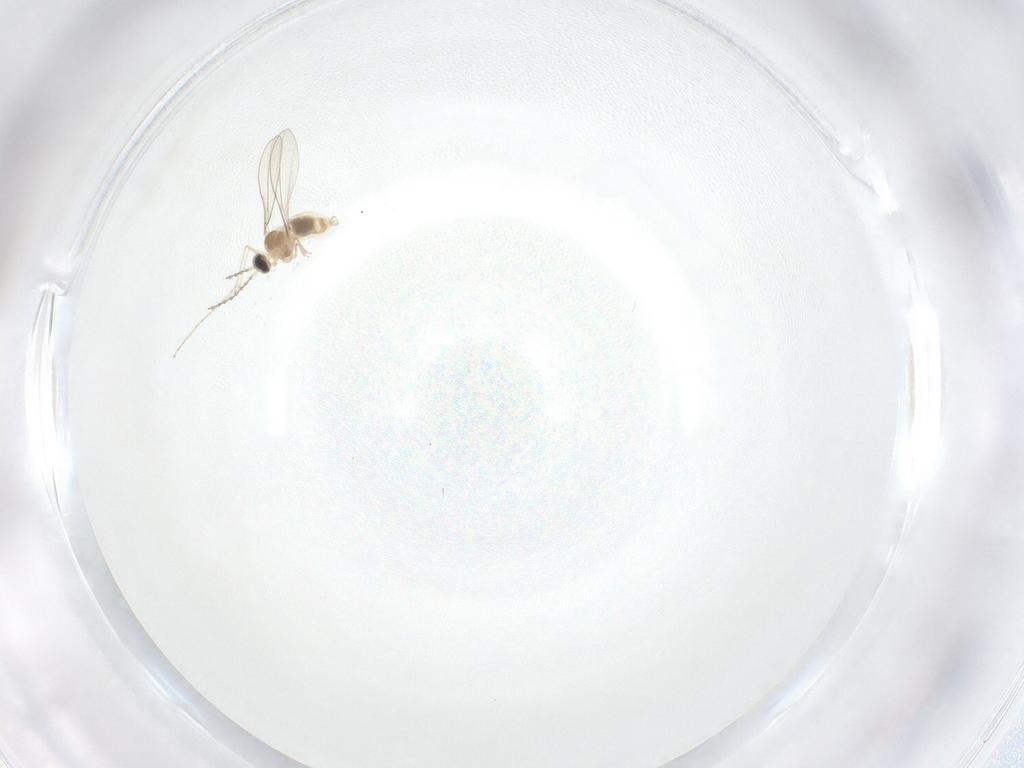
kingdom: Animalia
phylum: Arthropoda
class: Insecta
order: Diptera
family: Cecidomyiidae
